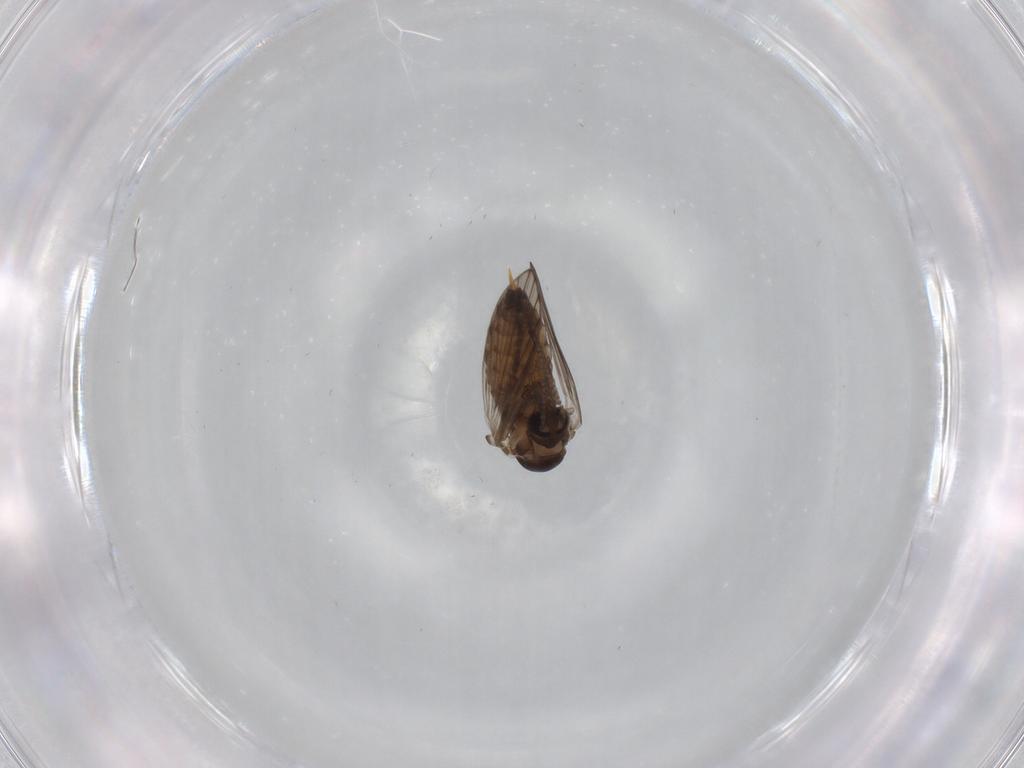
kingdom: Animalia
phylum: Arthropoda
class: Insecta
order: Diptera
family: Psychodidae
